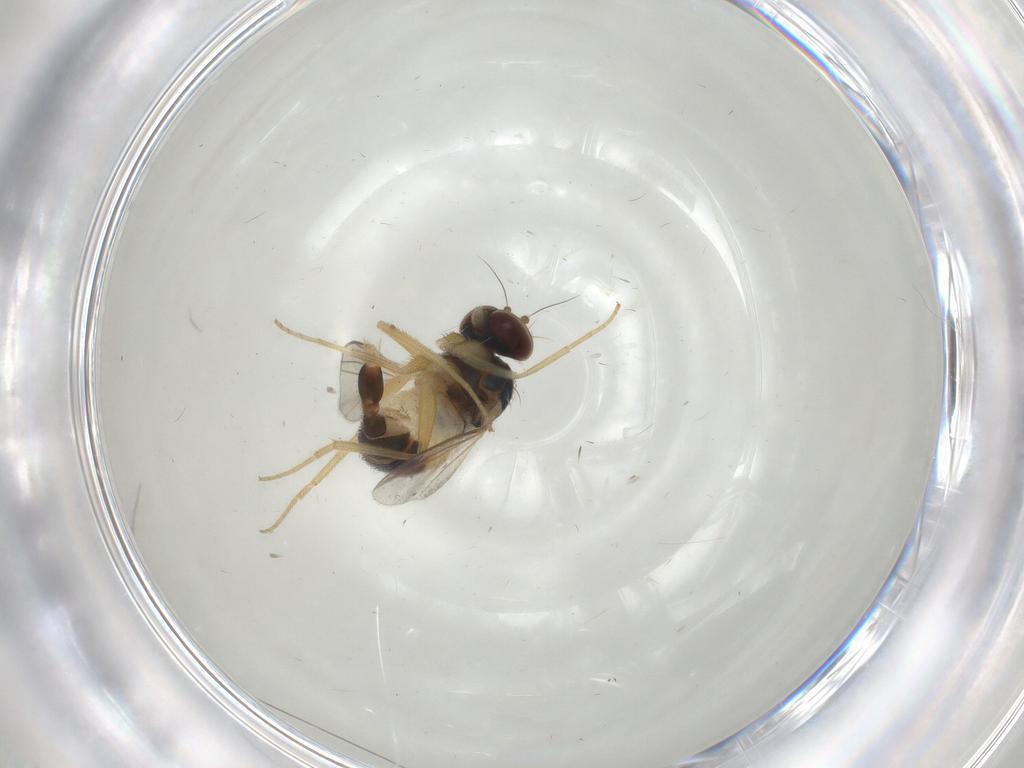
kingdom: Animalia
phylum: Arthropoda
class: Insecta
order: Diptera
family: Dolichopodidae
